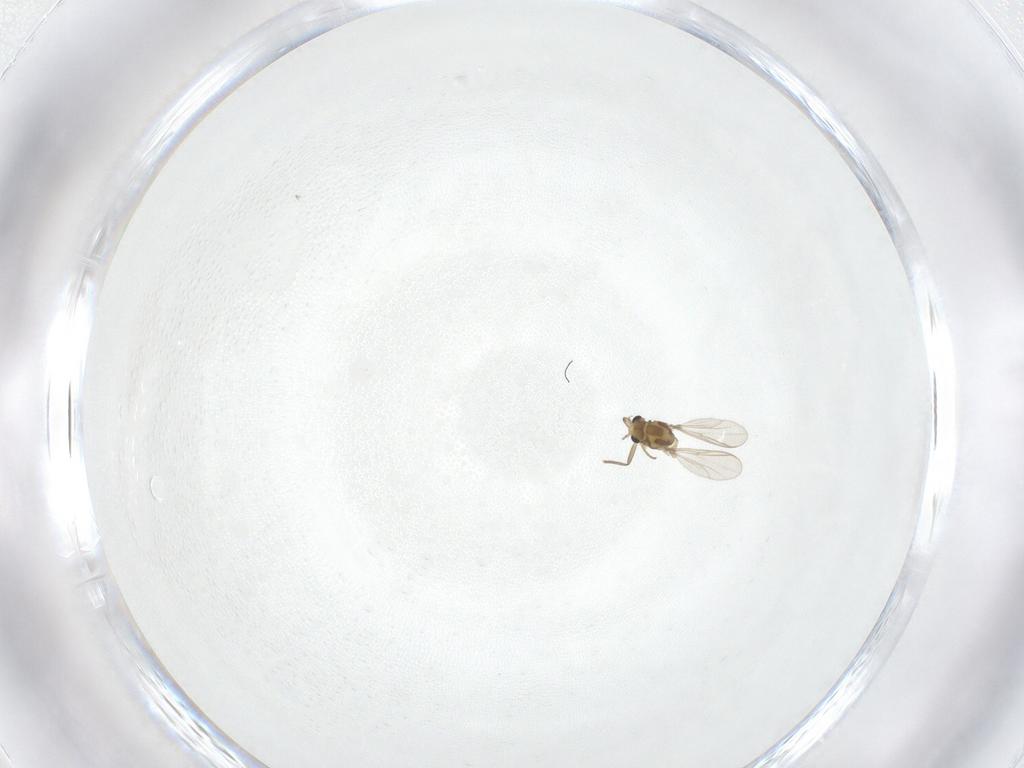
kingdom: Animalia
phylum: Arthropoda
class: Insecta
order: Diptera
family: Chironomidae
